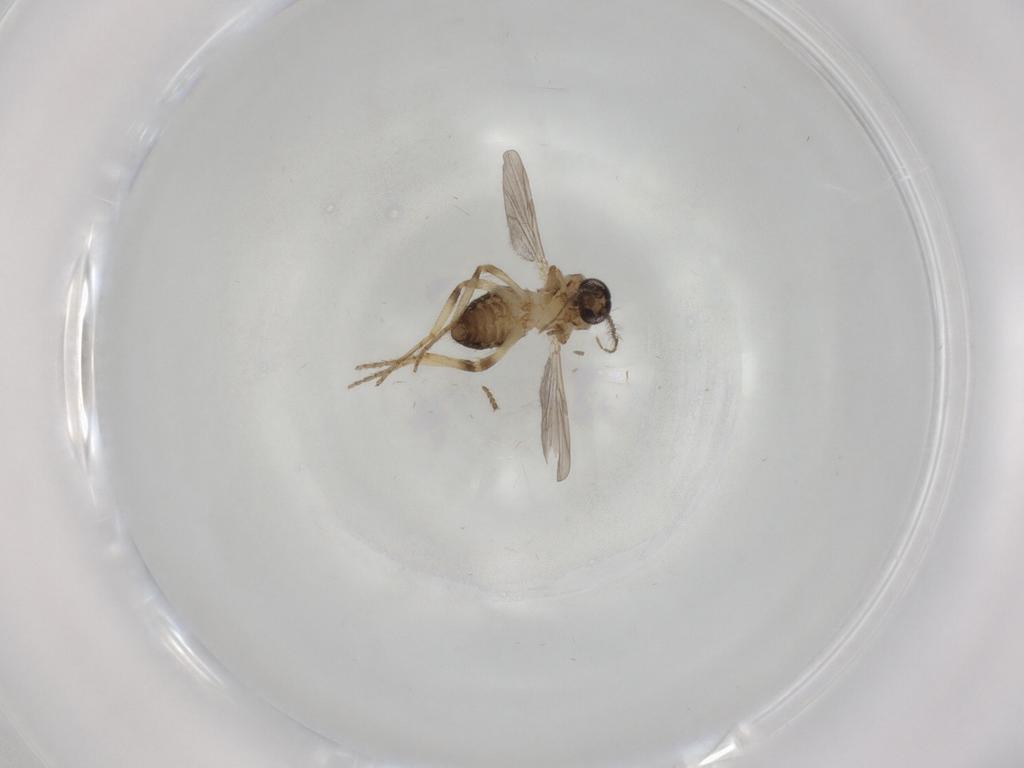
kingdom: Animalia
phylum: Arthropoda
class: Insecta
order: Diptera
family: Ceratopogonidae
